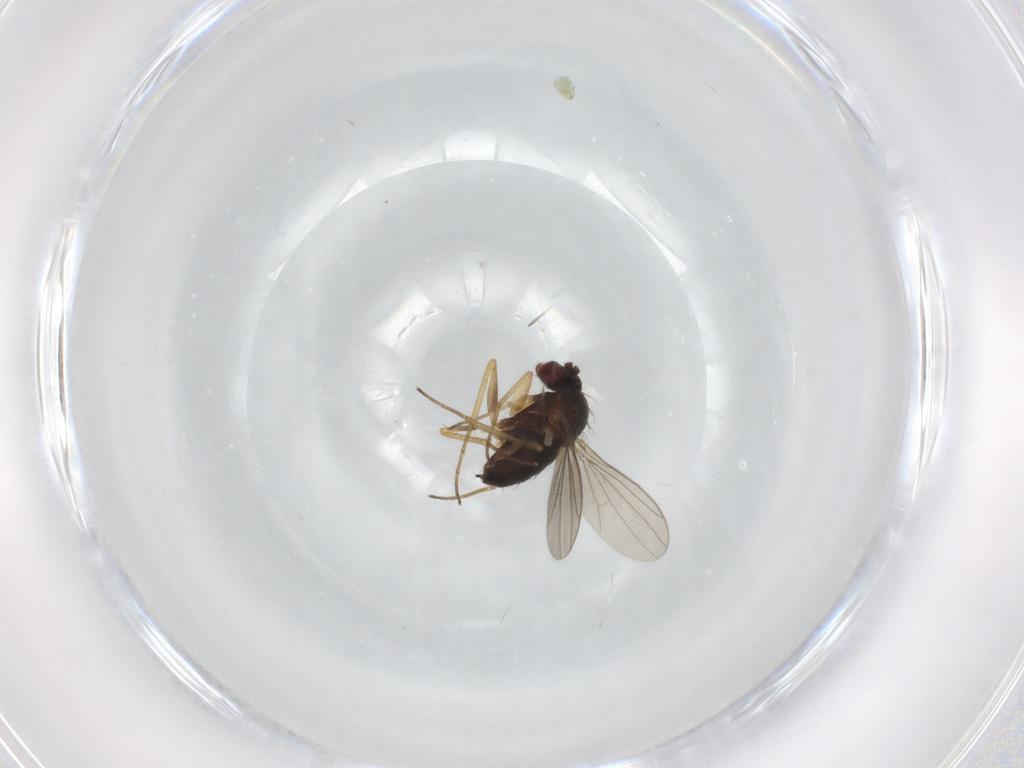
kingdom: Animalia
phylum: Arthropoda
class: Insecta
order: Diptera
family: Dolichopodidae
